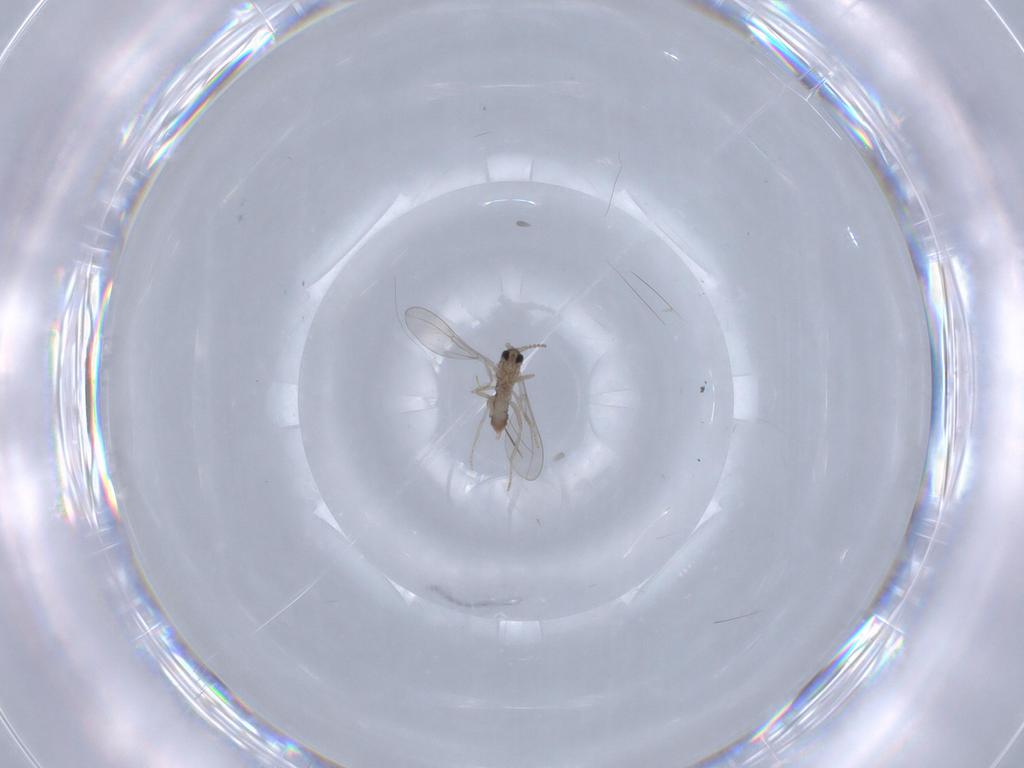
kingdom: Animalia
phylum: Arthropoda
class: Insecta
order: Diptera
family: Cecidomyiidae
